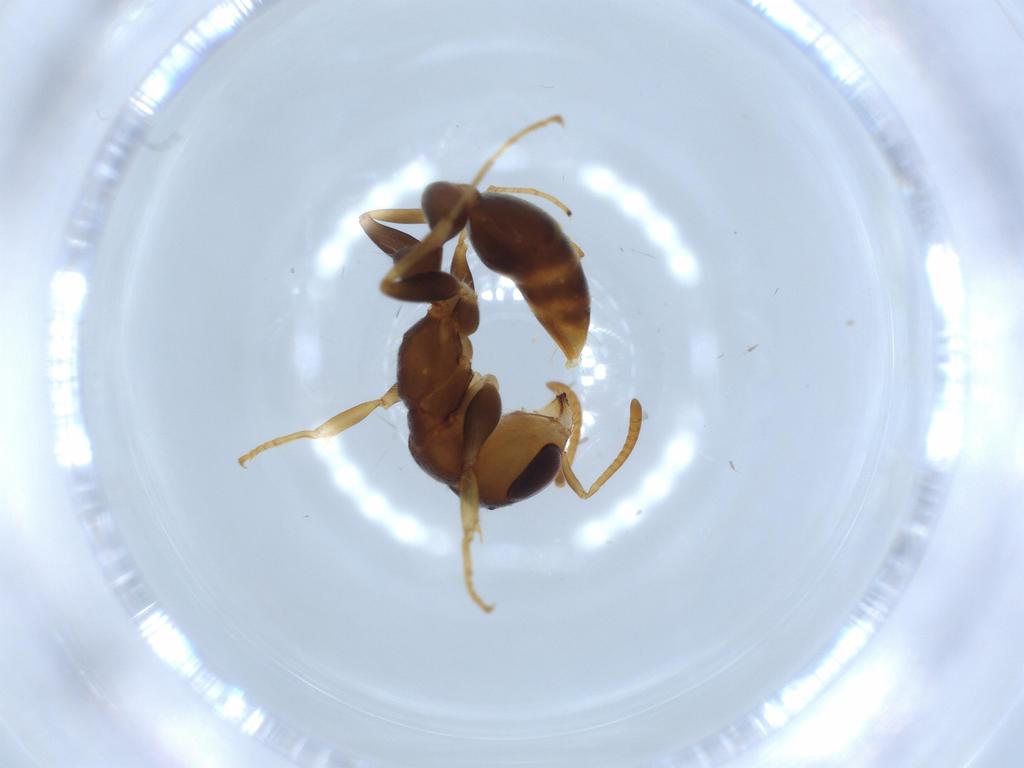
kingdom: Animalia
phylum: Arthropoda
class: Insecta
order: Hymenoptera
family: Formicidae
